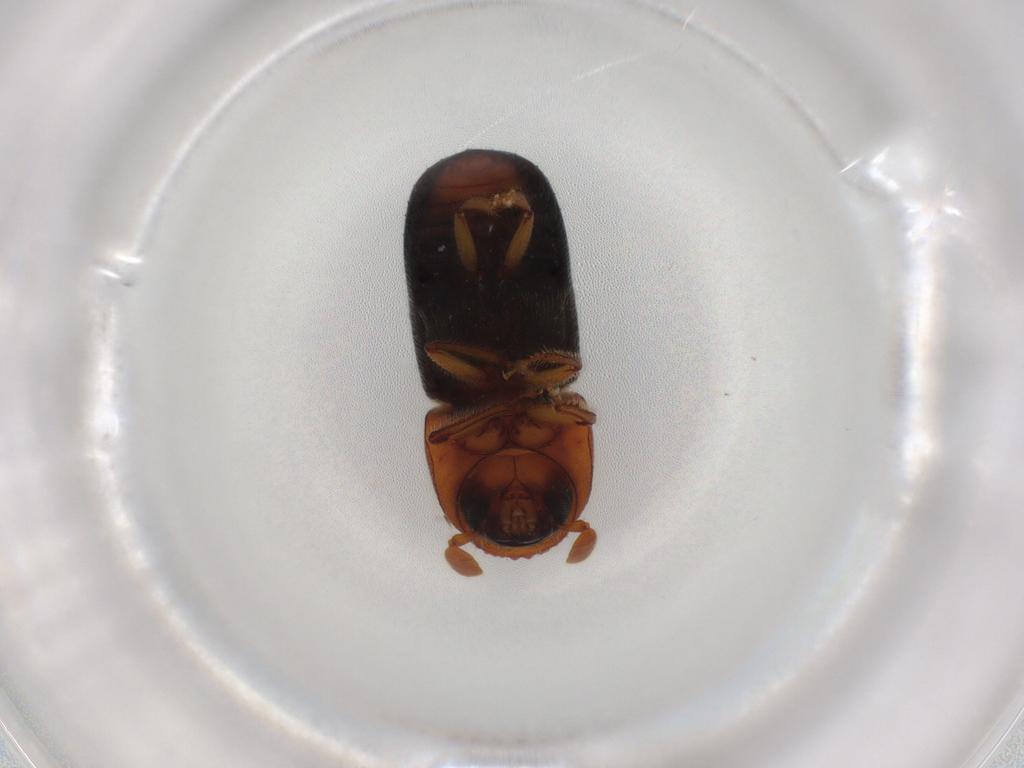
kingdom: Animalia
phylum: Arthropoda
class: Insecta
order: Coleoptera
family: Curculionidae
